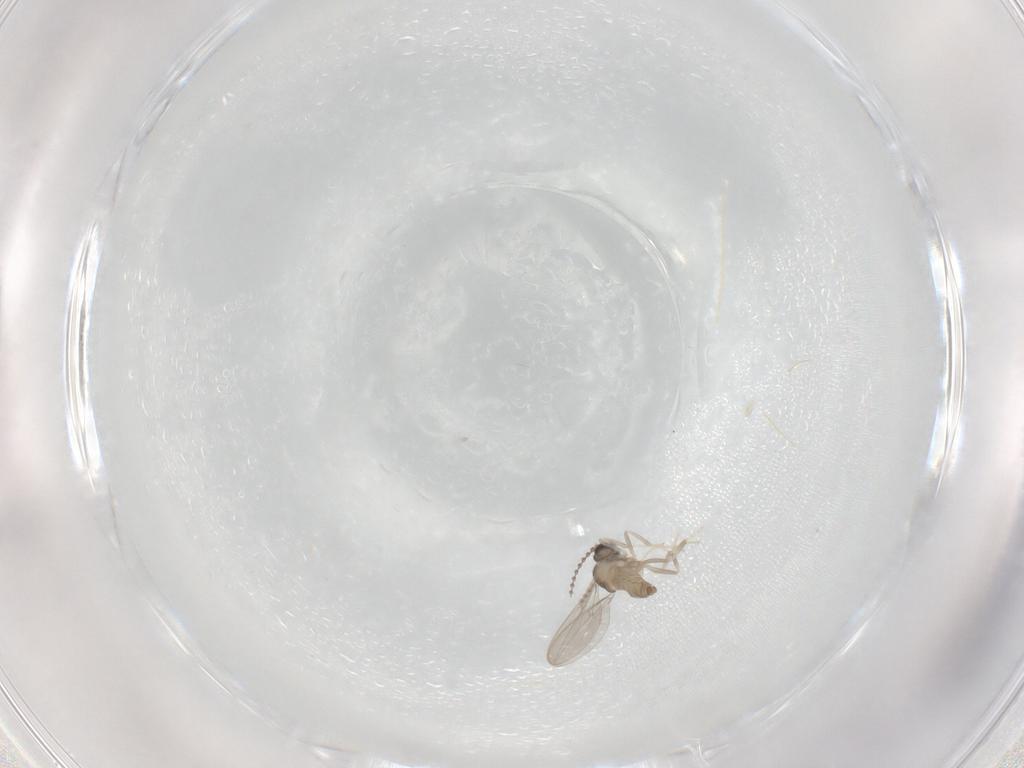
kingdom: Animalia
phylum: Arthropoda
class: Insecta
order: Diptera
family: Cecidomyiidae
